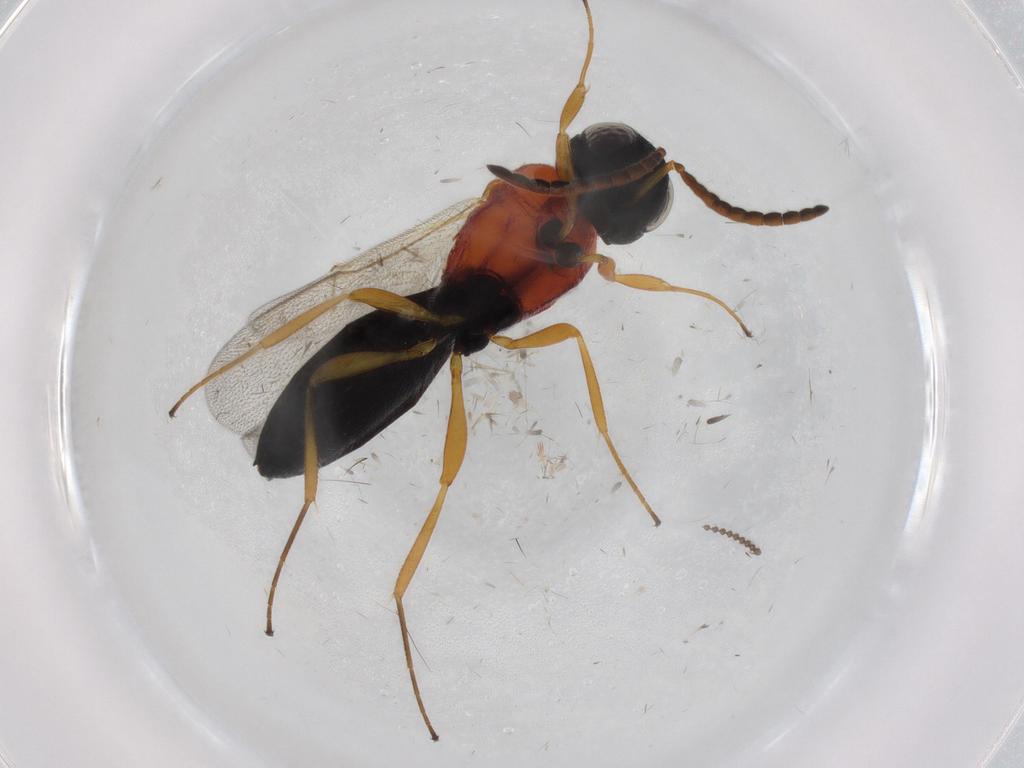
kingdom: Animalia
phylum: Arthropoda
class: Insecta
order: Hymenoptera
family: Scelionidae
